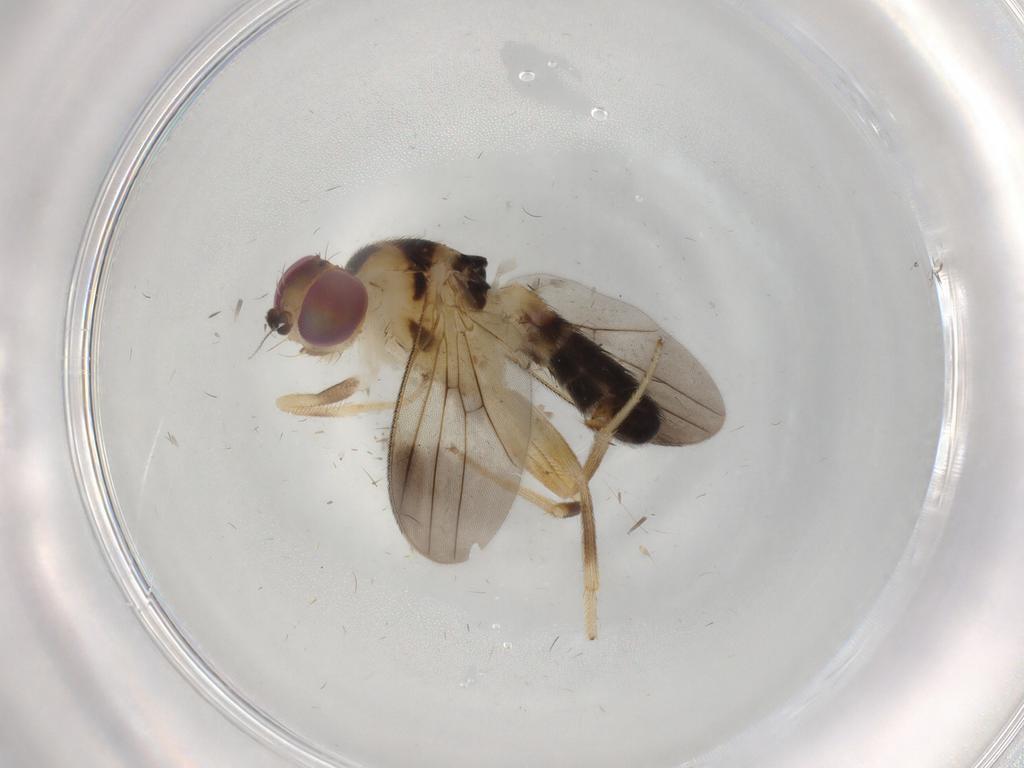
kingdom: Animalia
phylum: Arthropoda
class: Insecta
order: Diptera
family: Clusiidae
